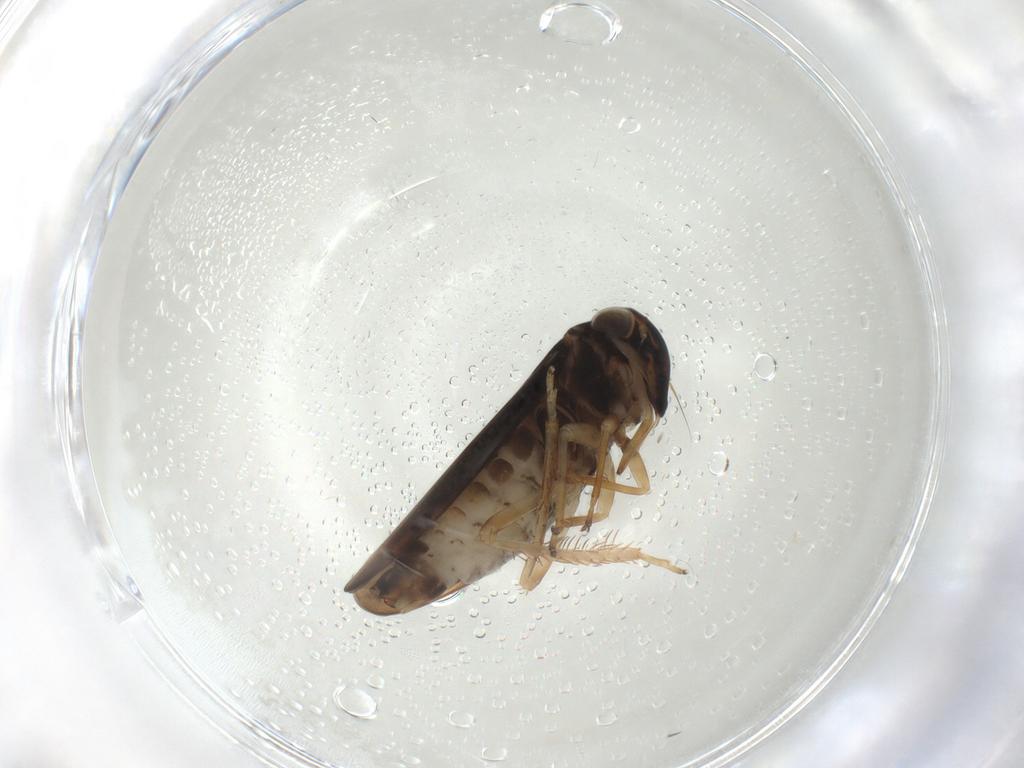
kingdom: Animalia
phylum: Arthropoda
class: Insecta
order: Hemiptera
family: Cicadellidae
